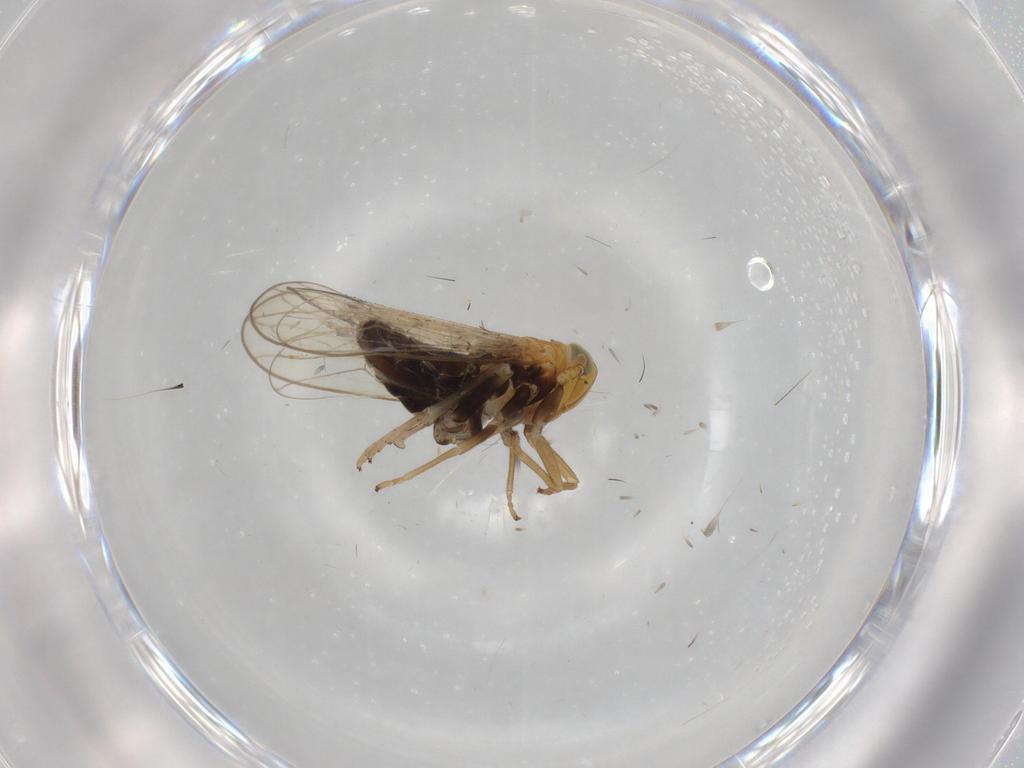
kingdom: Animalia
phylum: Arthropoda
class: Insecta
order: Hemiptera
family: Delphacidae
